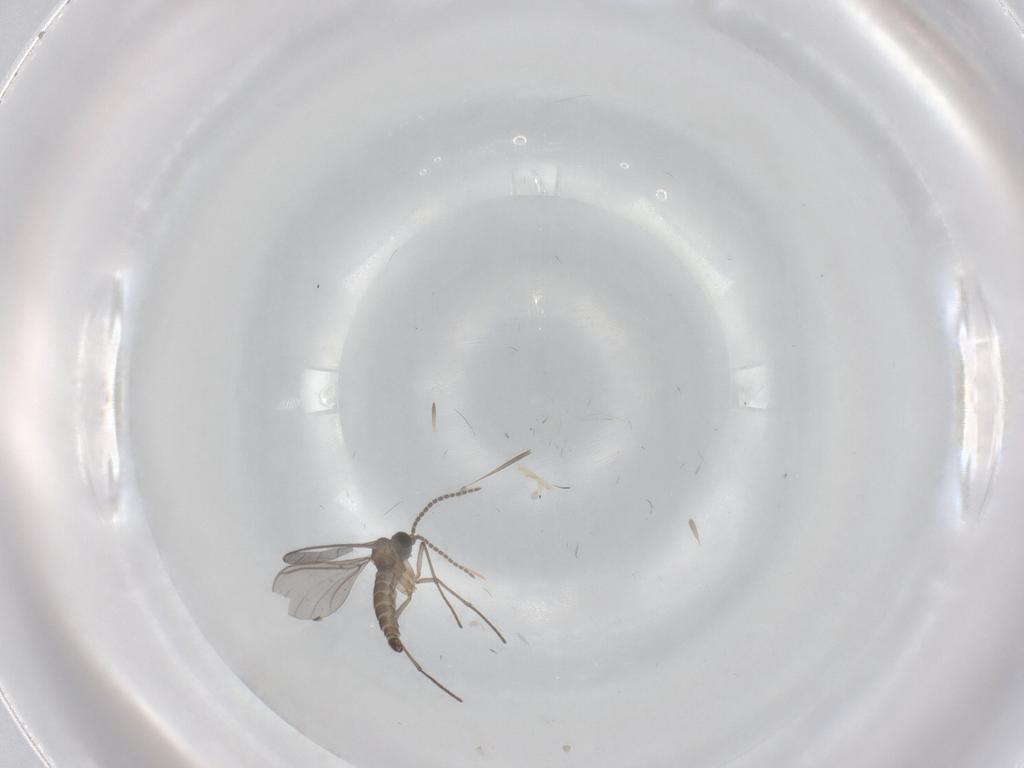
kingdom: Animalia
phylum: Arthropoda
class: Insecta
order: Diptera
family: Sciaridae
